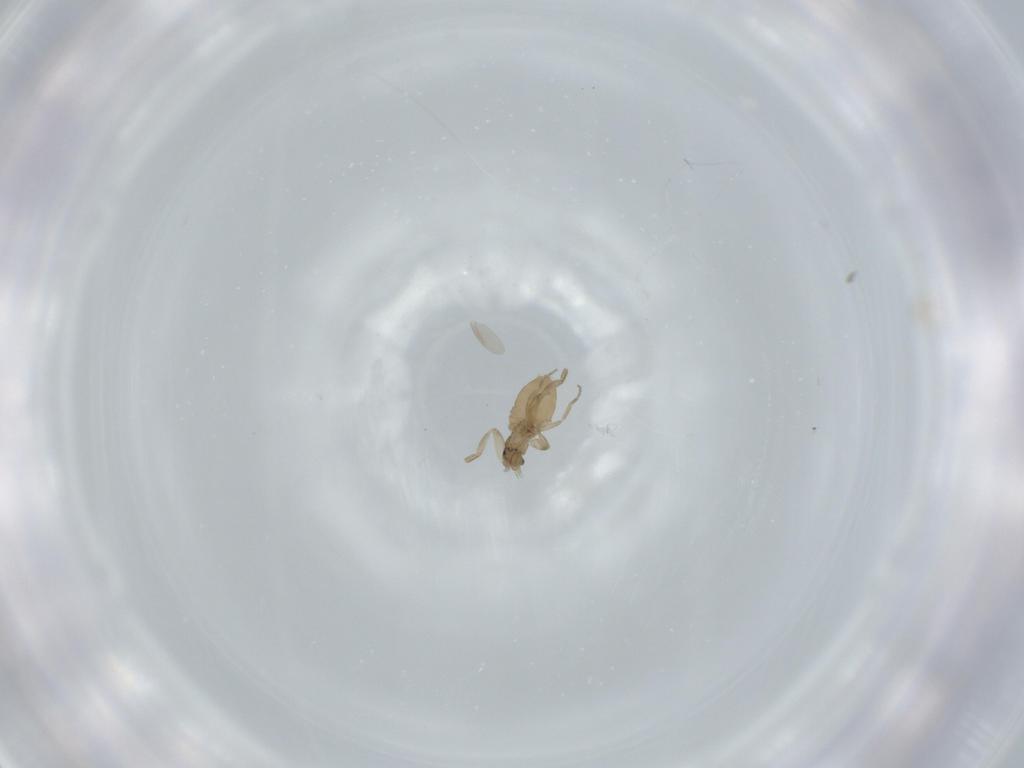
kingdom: Animalia
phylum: Arthropoda
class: Insecta
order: Diptera
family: Phoridae
